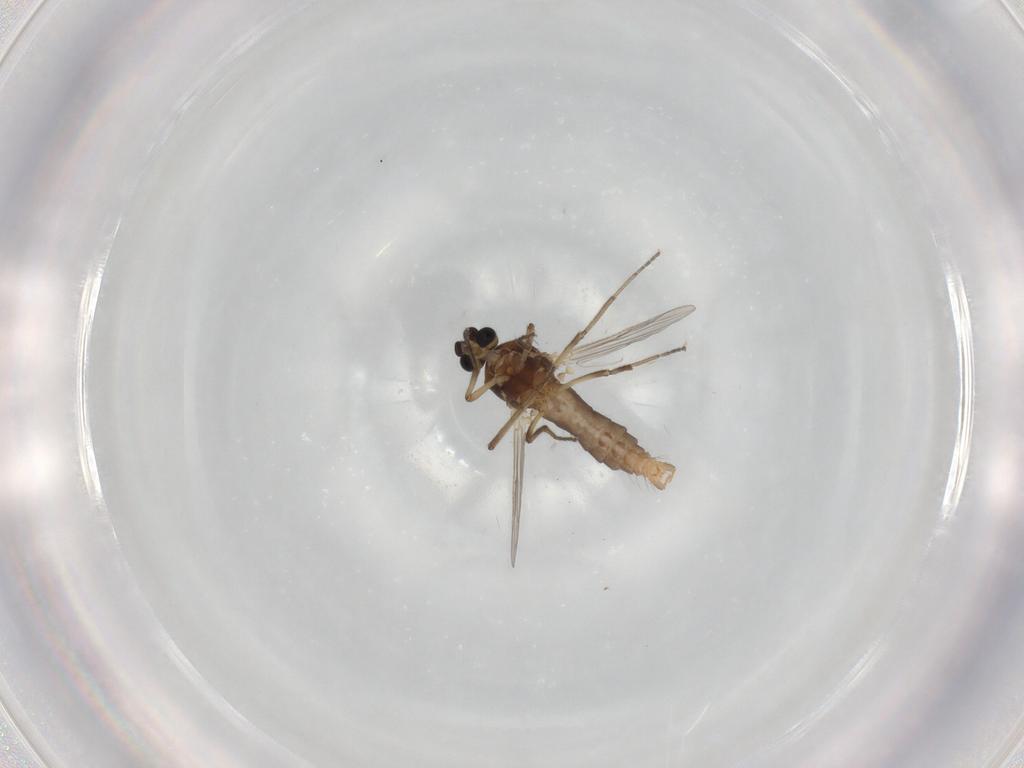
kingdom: Animalia
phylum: Arthropoda
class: Insecta
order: Diptera
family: Ceratopogonidae
